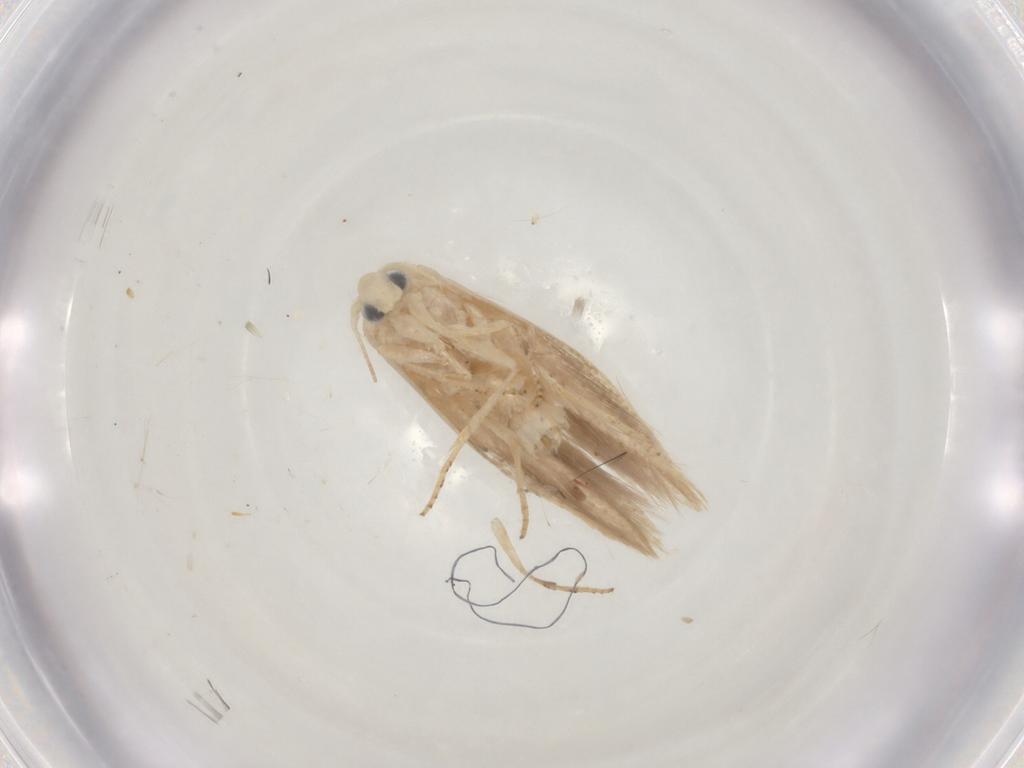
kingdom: Animalia
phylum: Arthropoda
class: Insecta
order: Lepidoptera
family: Bucculatricidae
